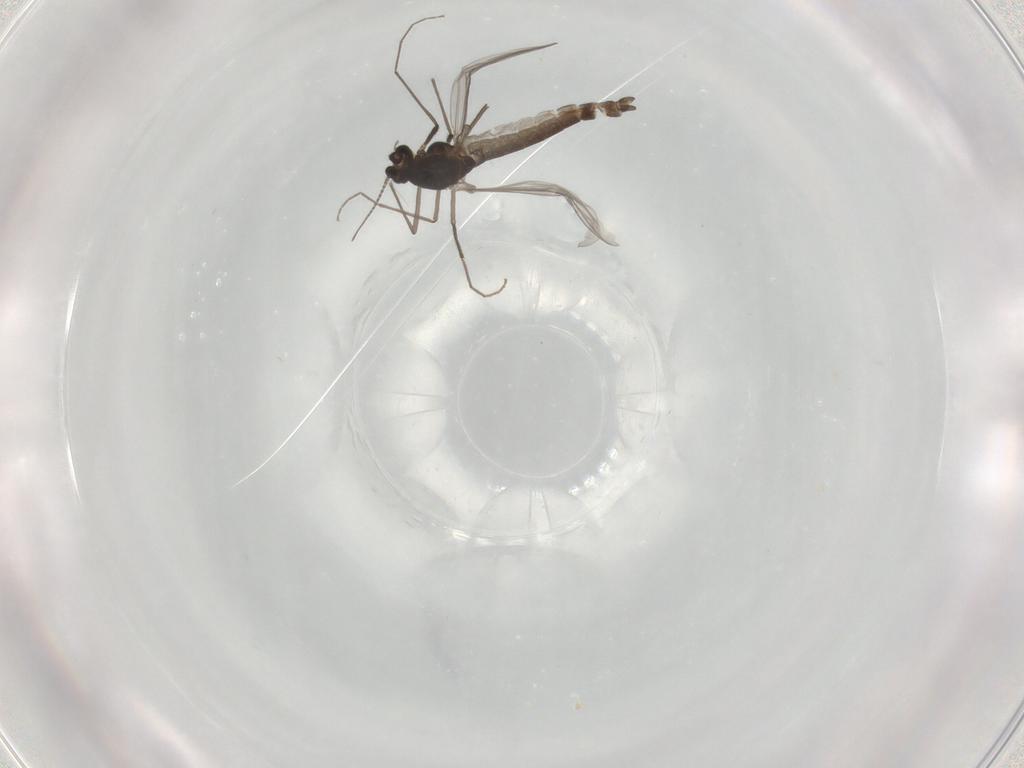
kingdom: Animalia
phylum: Arthropoda
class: Insecta
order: Diptera
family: Chironomidae
